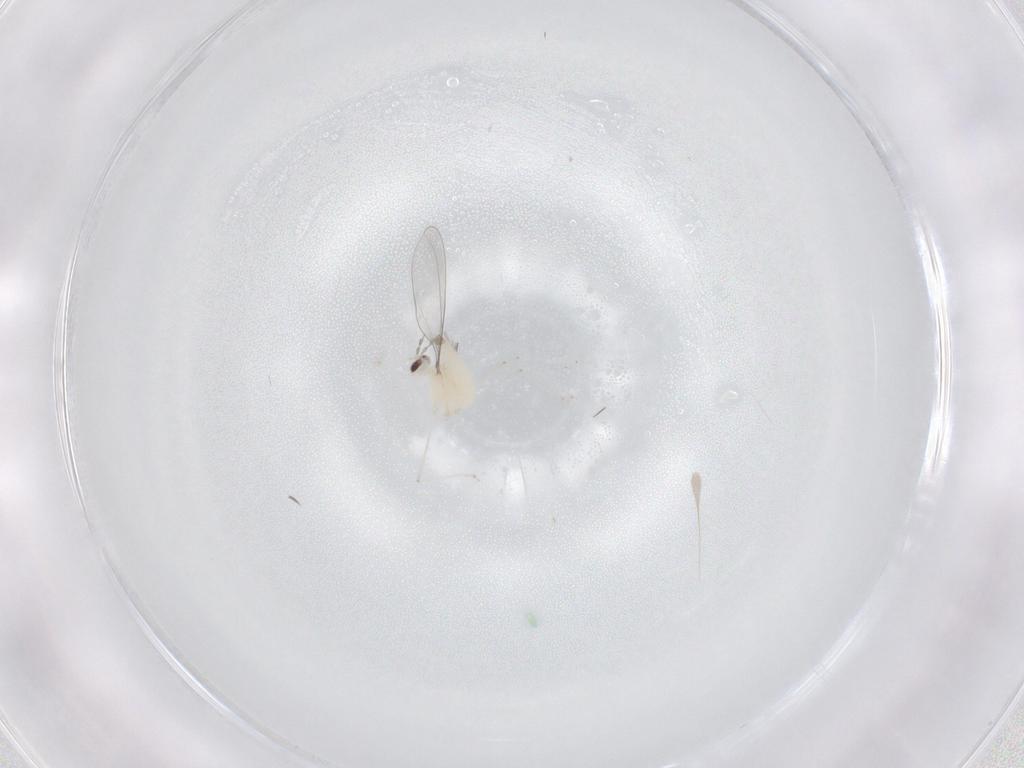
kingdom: Animalia
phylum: Arthropoda
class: Insecta
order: Diptera
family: Cecidomyiidae
